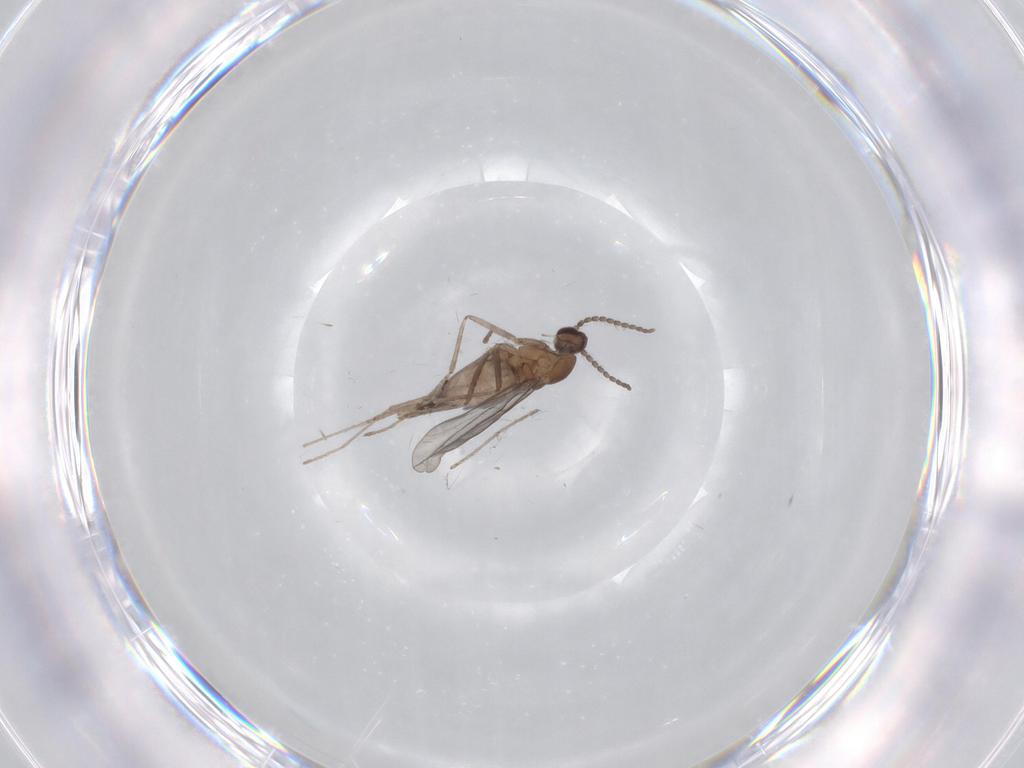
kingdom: Animalia
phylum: Arthropoda
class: Insecta
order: Diptera
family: Cecidomyiidae
